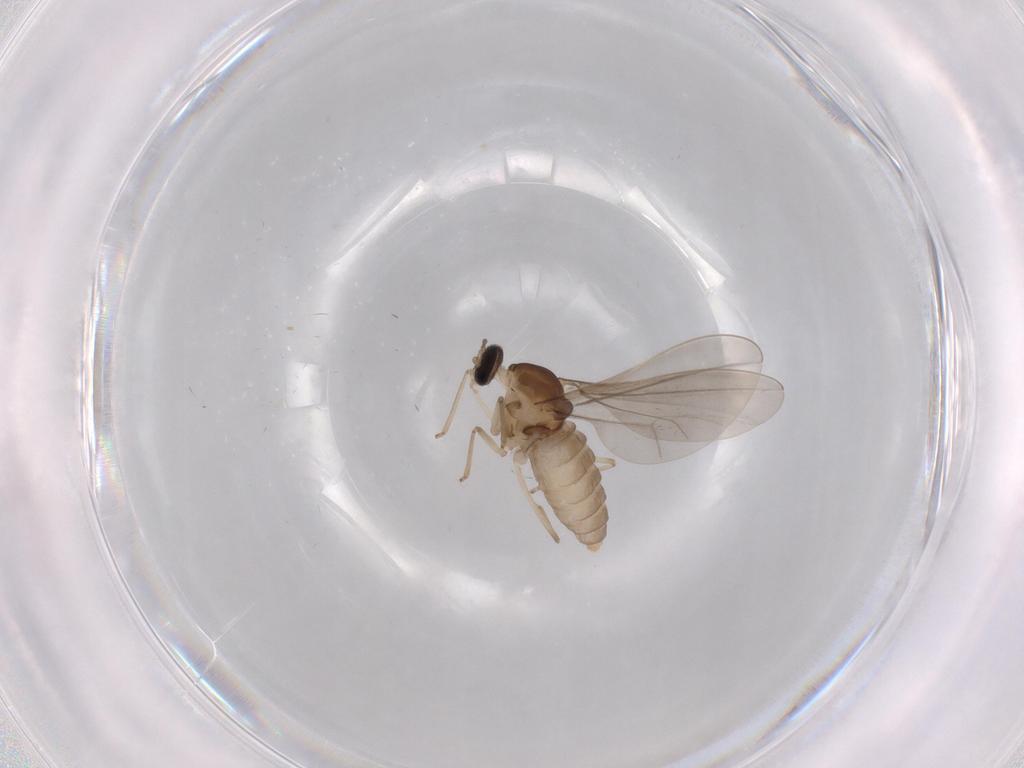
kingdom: Animalia
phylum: Arthropoda
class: Insecta
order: Diptera
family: Cecidomyiidae
